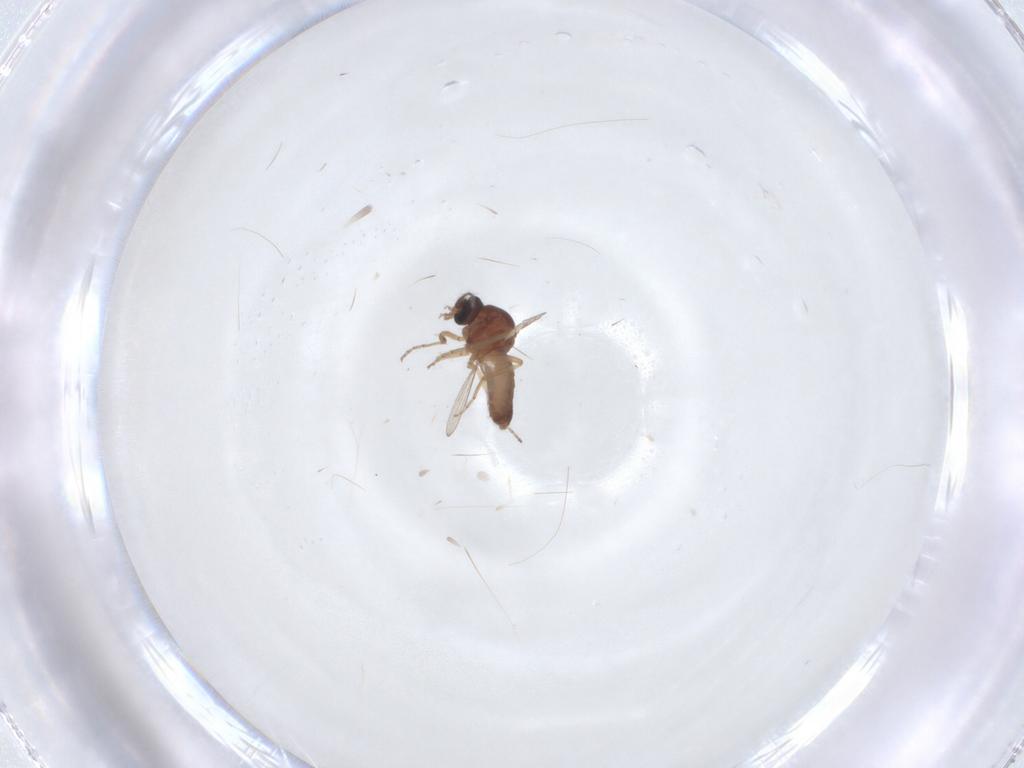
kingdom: Animalia
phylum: Arthropoda
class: Insecta
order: Diptera
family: Ceratopogonidae
